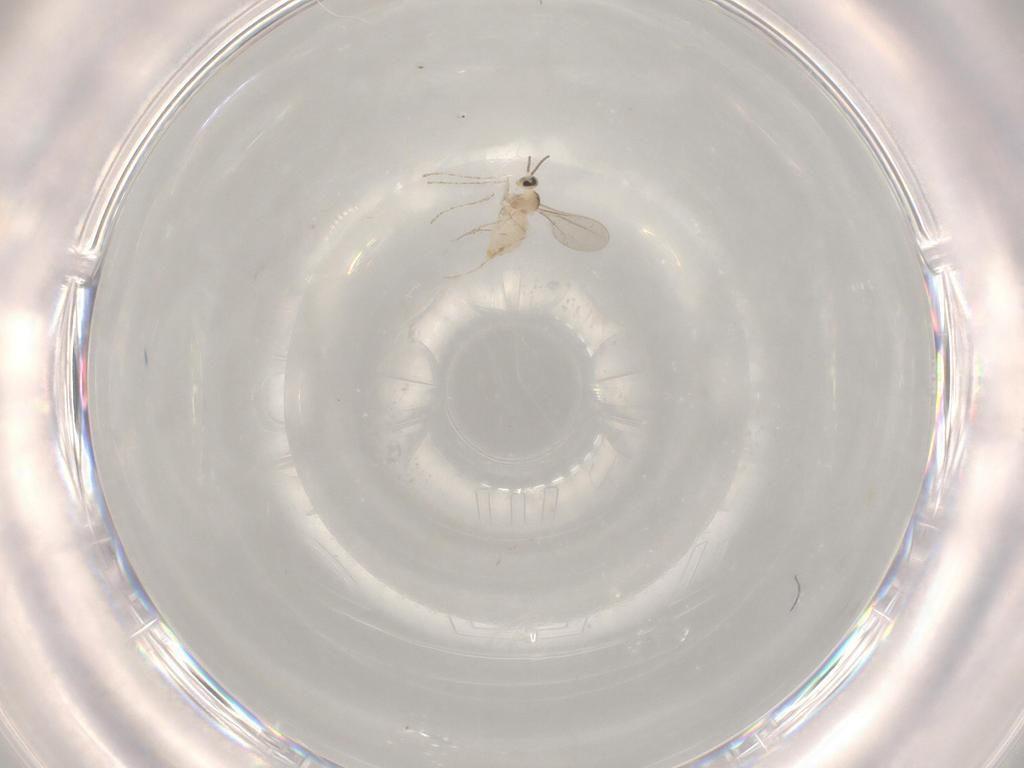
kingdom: Animalia
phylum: Arthropoda
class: Insecta
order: Diptera
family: Cecidomyiidae
